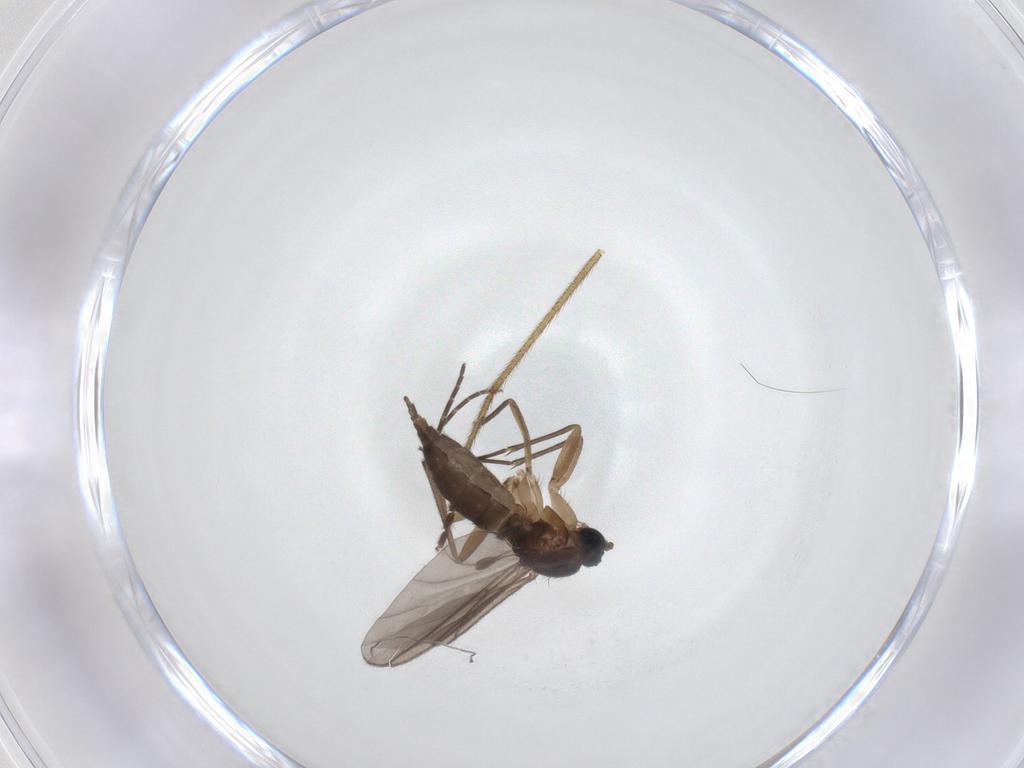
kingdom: Animalia
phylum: Arthropoda
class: Insecta
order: Diptera
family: Sciaridae
